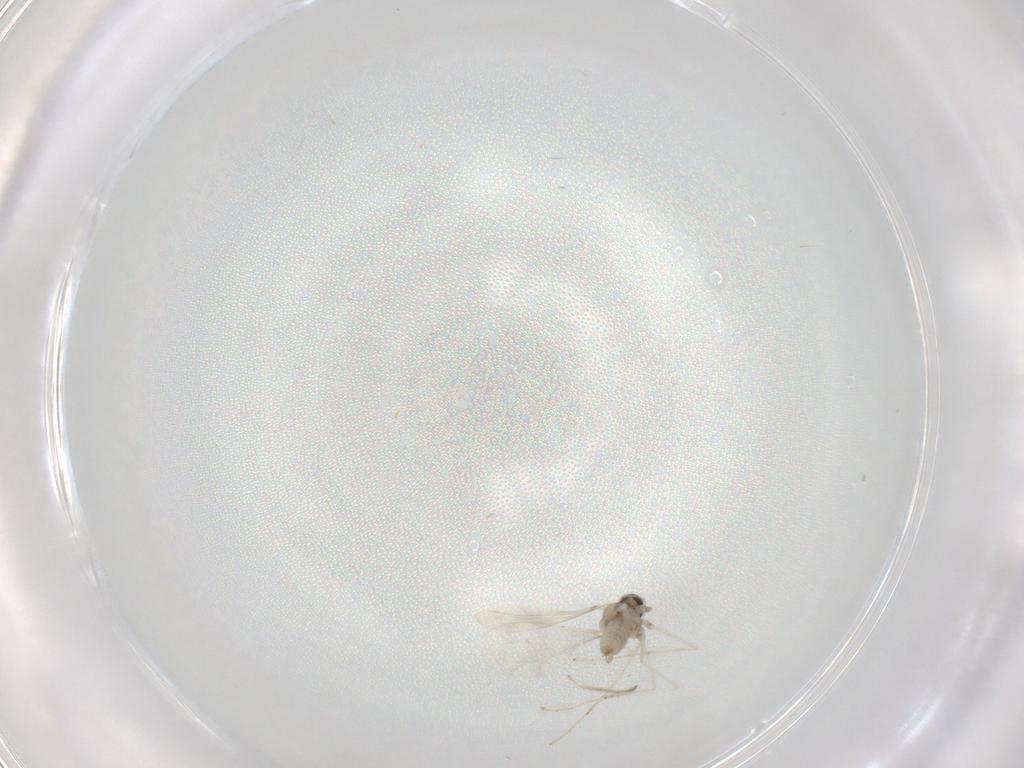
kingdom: Animalia
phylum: Arthropoda
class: Insecta
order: Diptera
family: Cecidomyiidae
